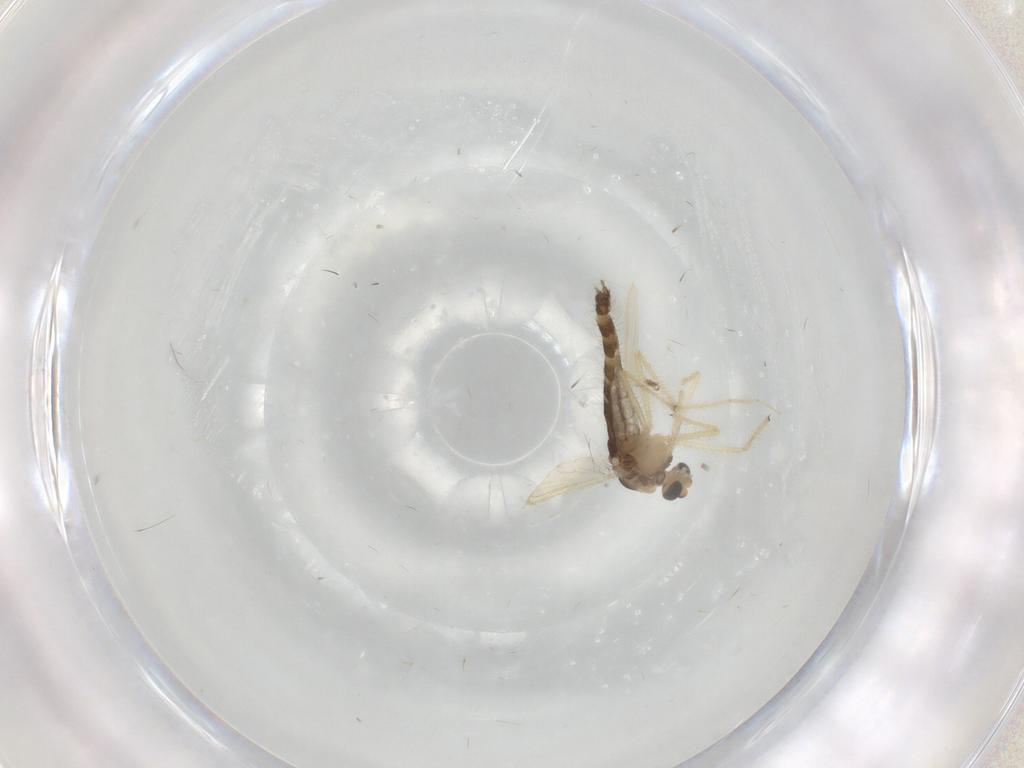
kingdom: Animalia
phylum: Arthropoda
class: Insecta
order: Diptera
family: Chironomidae
